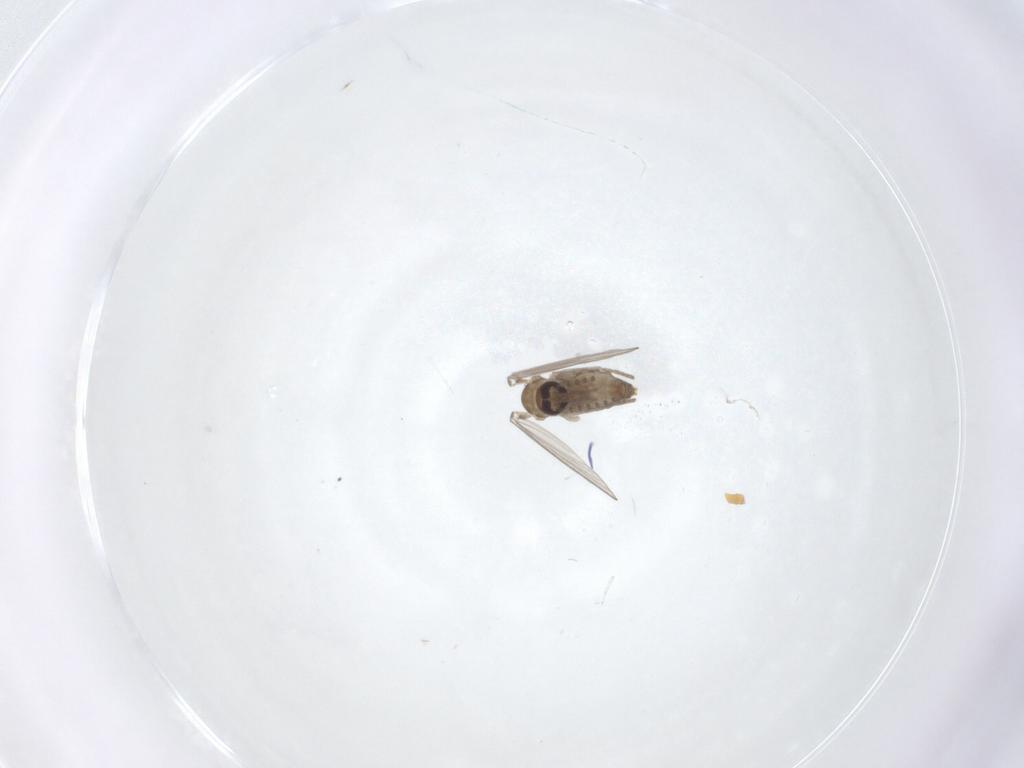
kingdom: Animalia
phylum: Arthropoda
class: Insecta
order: Diptera
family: Psychodidae
